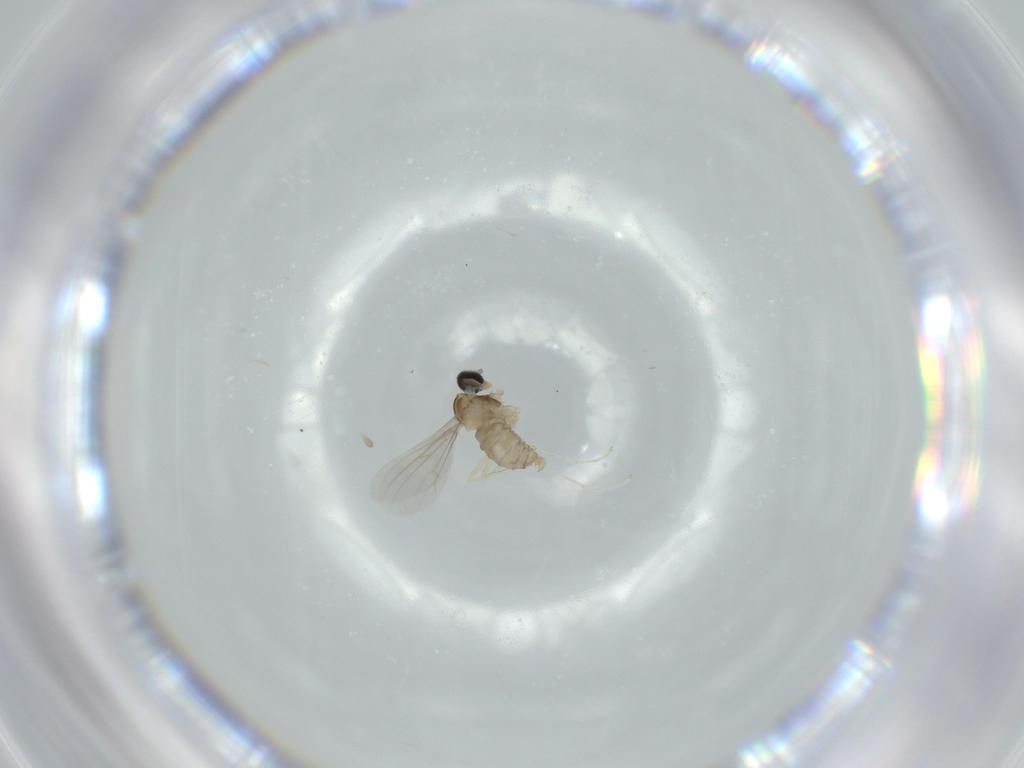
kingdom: Animalia
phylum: Arthropoda
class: Insecta
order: Diptera
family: Cecidomyiidae
